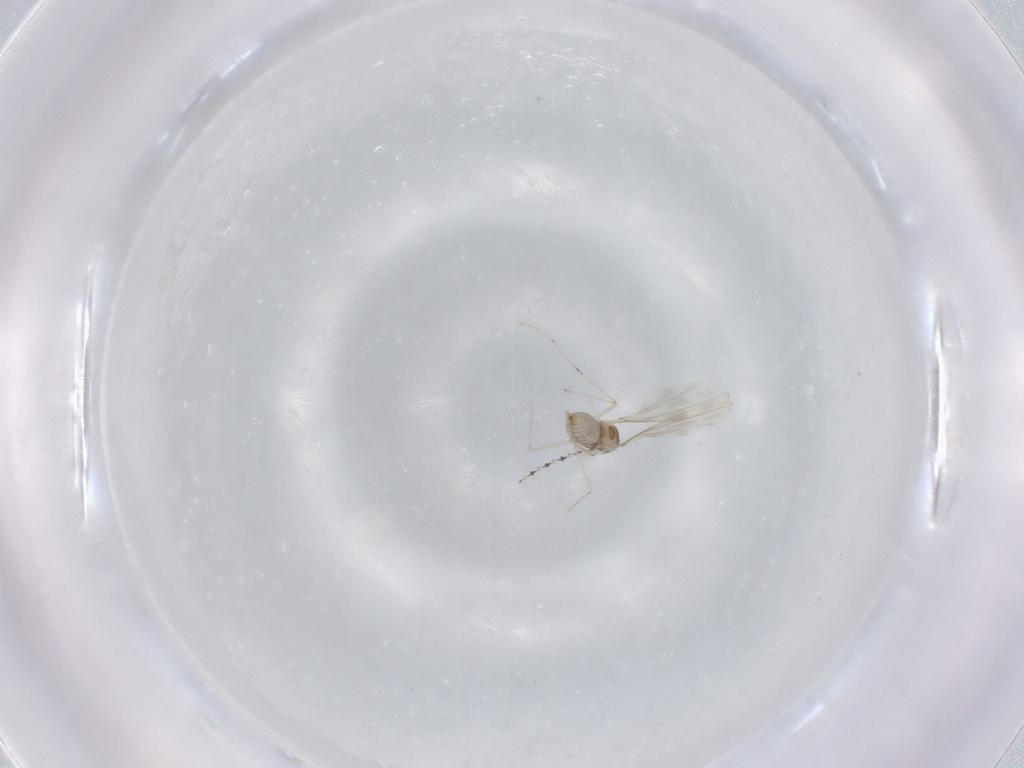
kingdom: Animalia
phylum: Arthropoda
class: Insecta
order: Diptera
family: Cecidomyiidae
